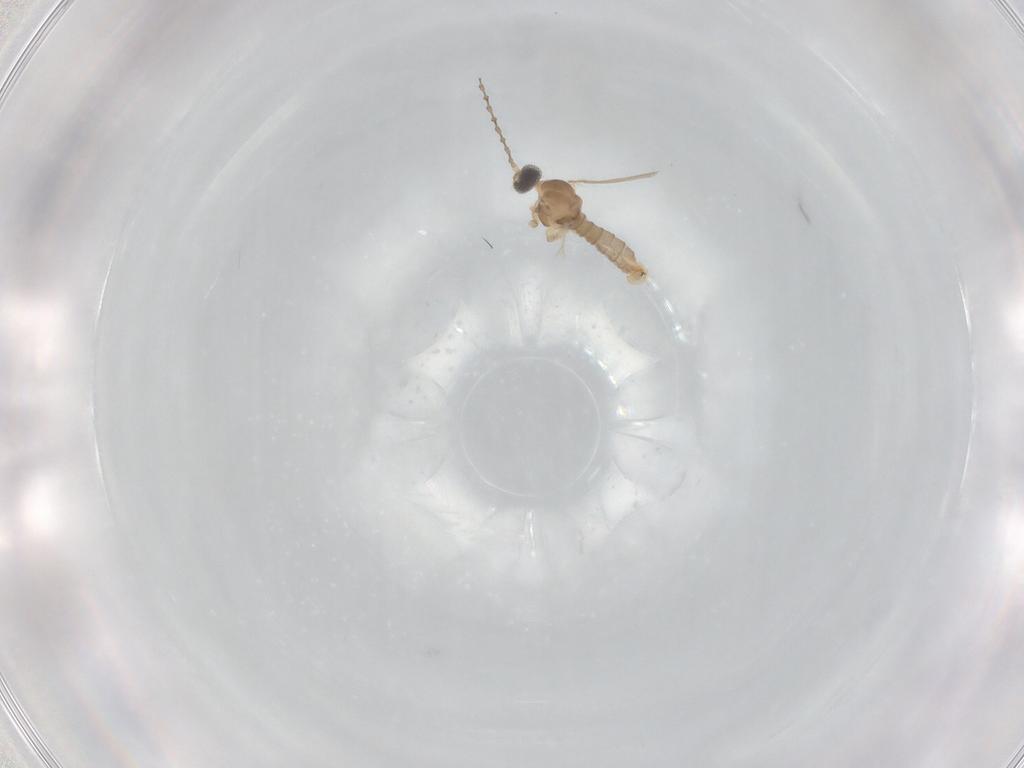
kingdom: Animalia
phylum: Arthropoda
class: Insecta
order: Diptera
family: Cecidomyiidae
